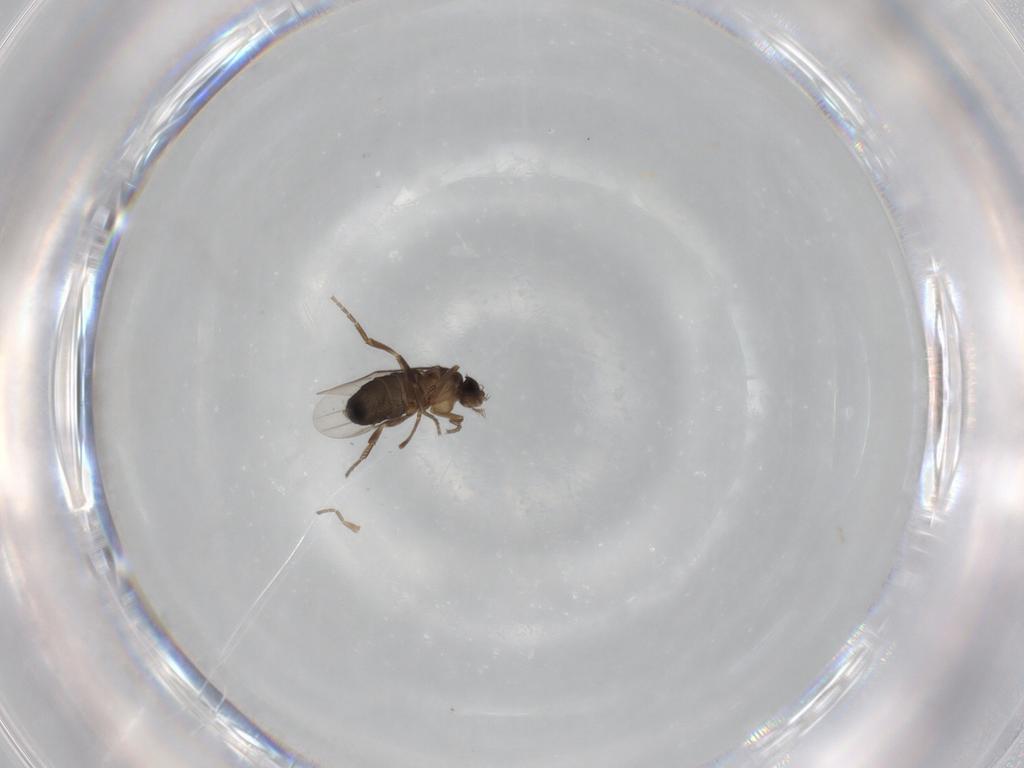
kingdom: Animalia
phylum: Arthropoda
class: Insecta
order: Diptera
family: Phoridae
